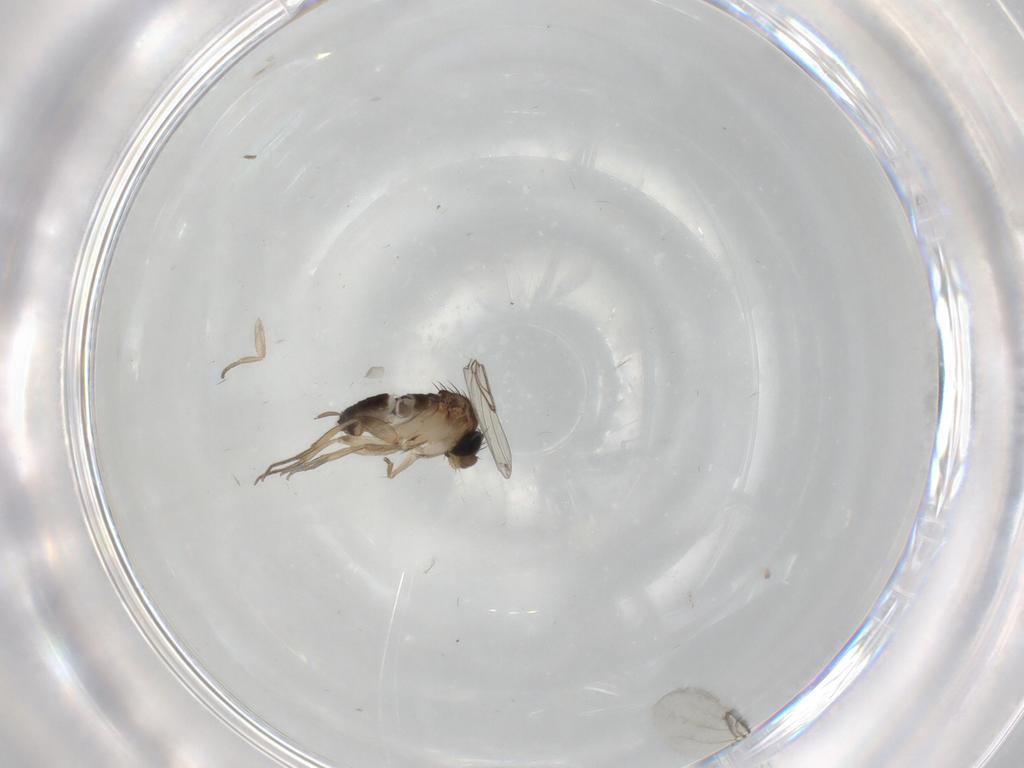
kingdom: Animalia
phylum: Arthropoda
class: Insecta
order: Diptera
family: Phoridae
